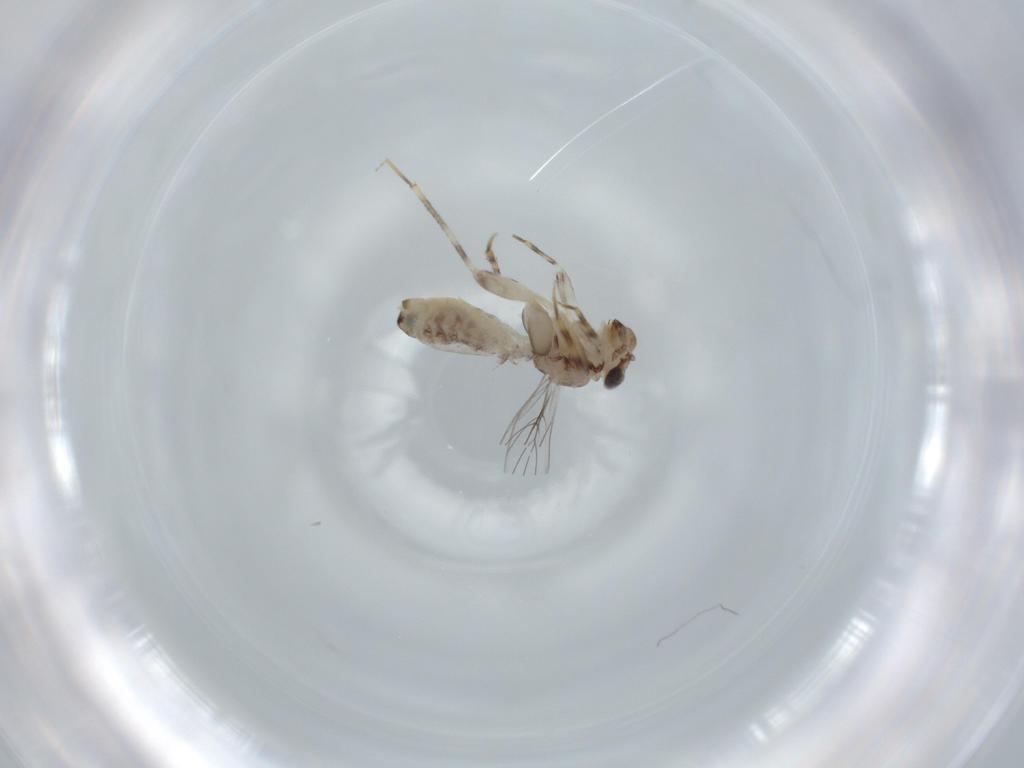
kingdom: Animalia
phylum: Arthropoda
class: Insecta
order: Psocodea
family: Lepidopsocidae
